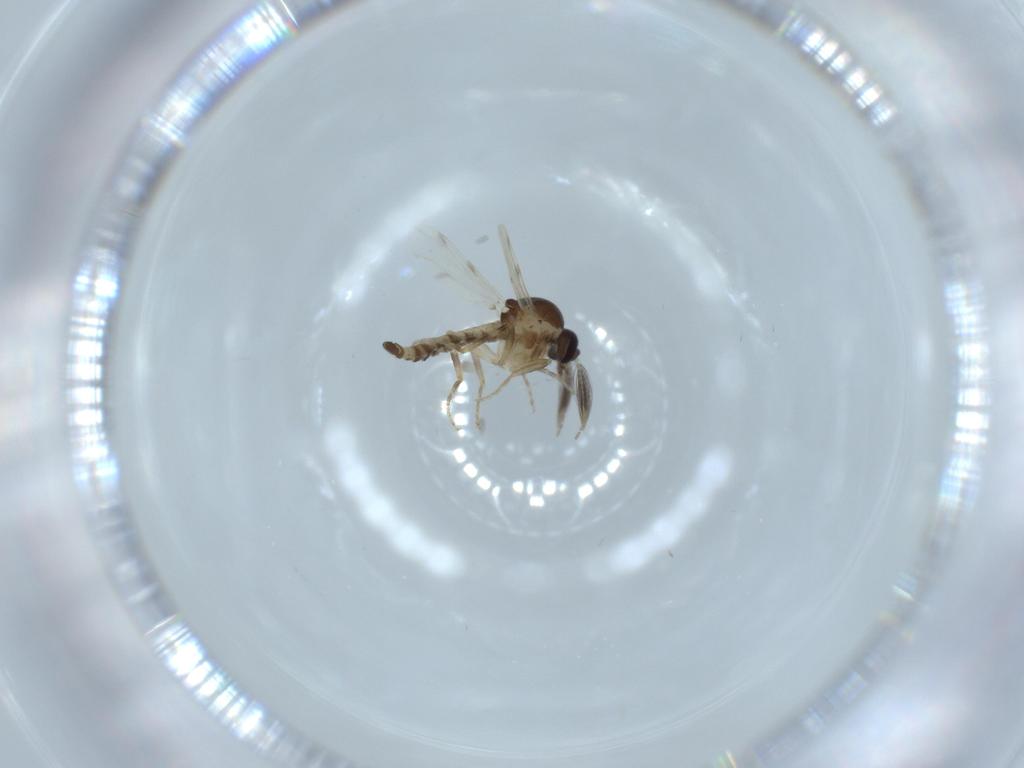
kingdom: Animalia
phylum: Arthropoda
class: Insecta
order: Diptera
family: Ceratopogonidae
